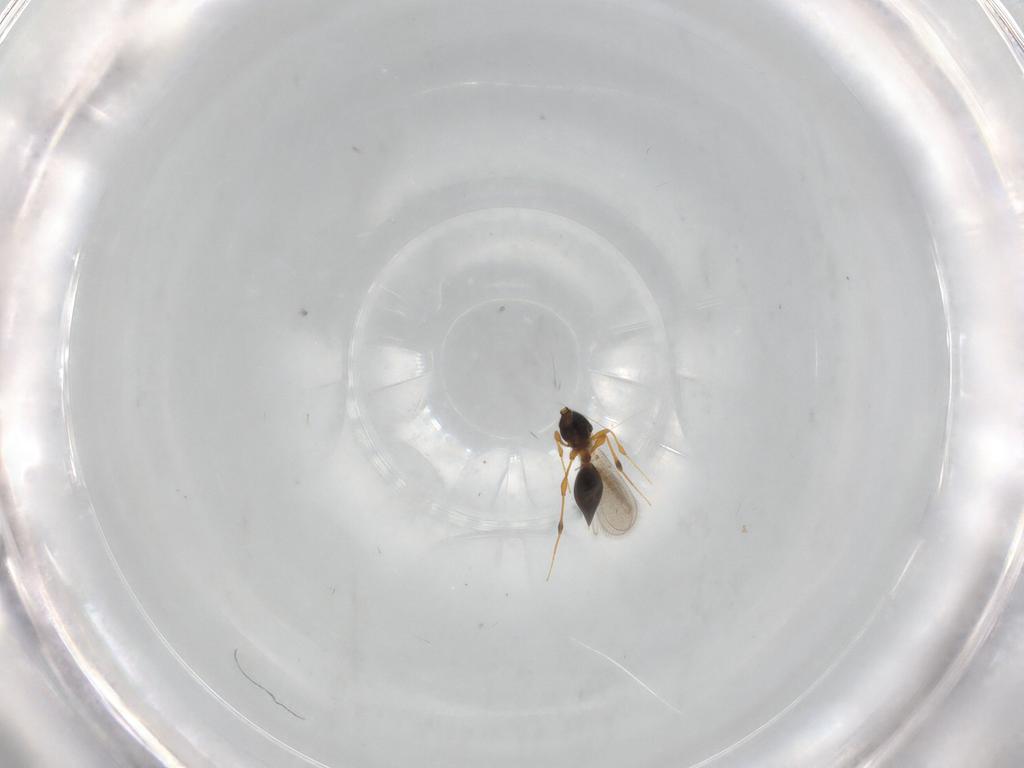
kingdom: Animalia
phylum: Arthropoda
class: Insecta
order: Hymenoptera
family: Platygastridae
